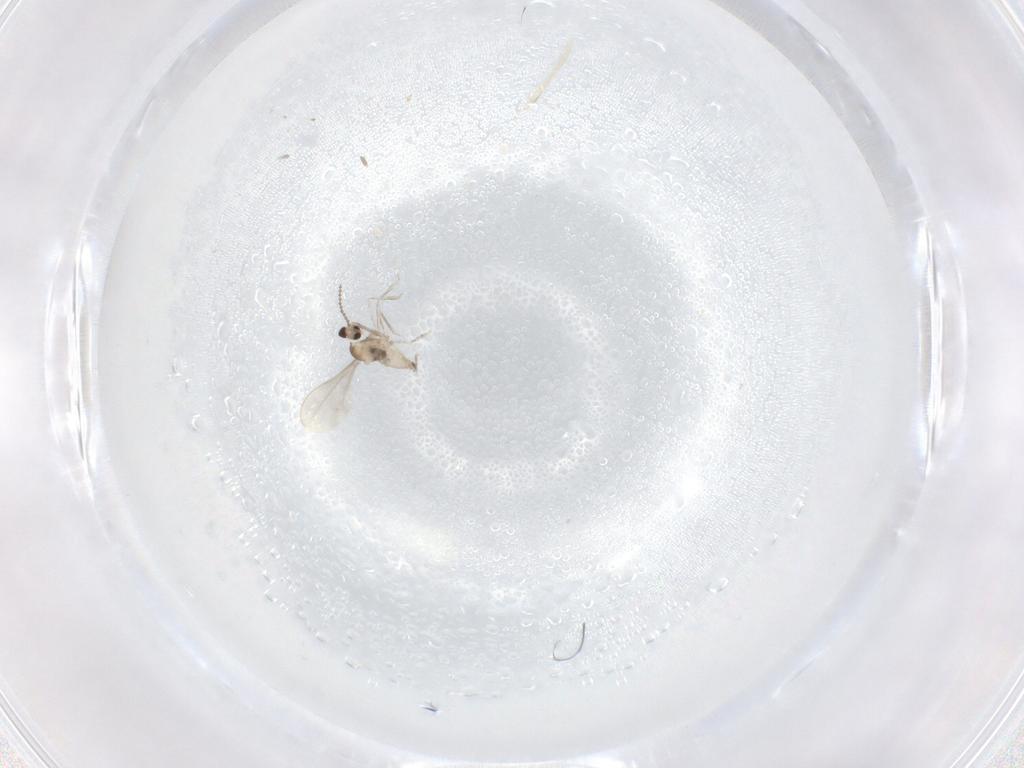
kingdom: Animalia
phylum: Arthropoda
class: Insecta
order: Diptera
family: Cecidomyiidae
